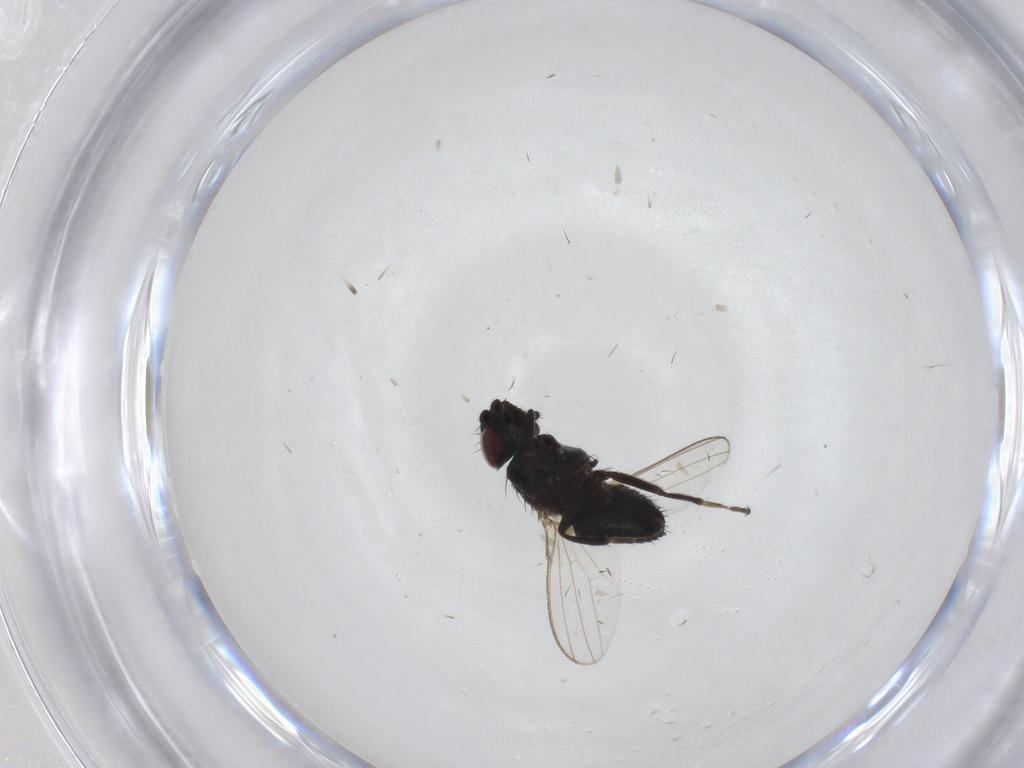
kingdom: Animalia
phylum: Arthropoda
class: Insecta
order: Diptera
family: Milichiidae
